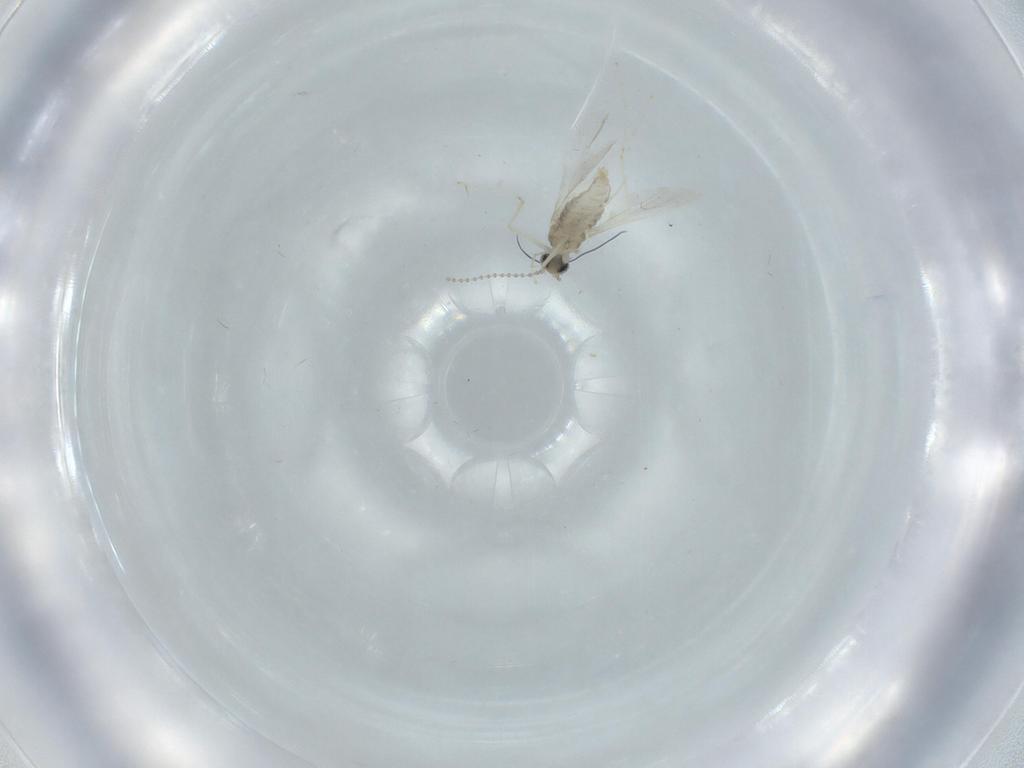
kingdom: Animalia
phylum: Arthropoda
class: Insecta
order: Diptera
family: Cecidomyiidae
